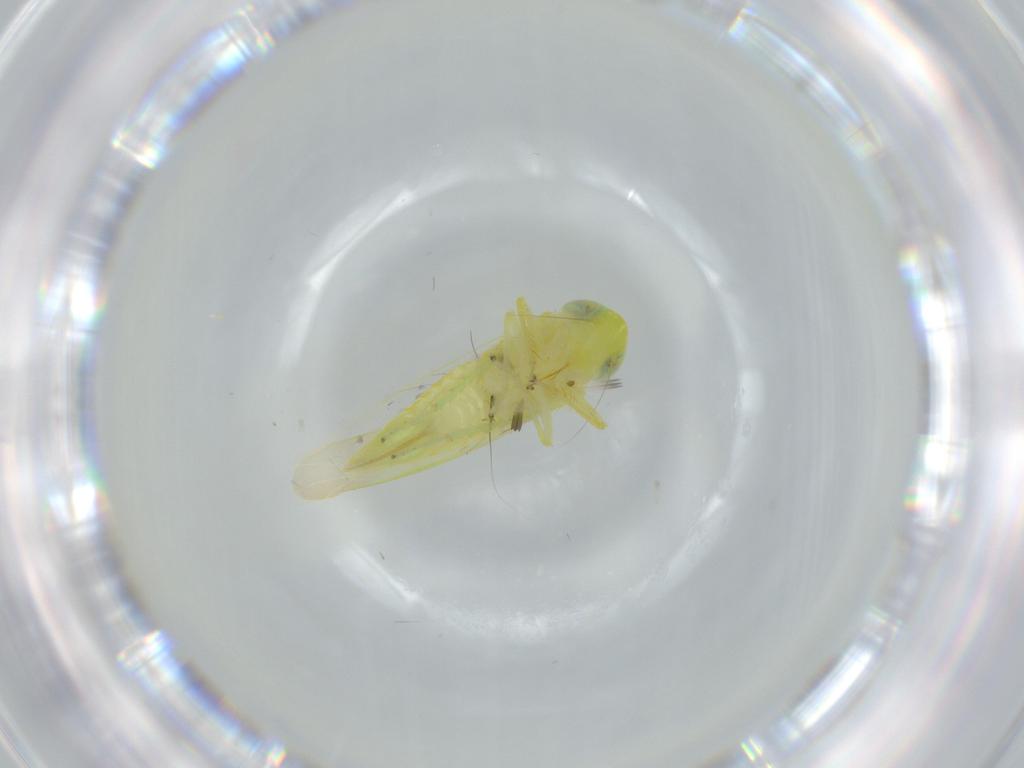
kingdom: Animalia
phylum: Arthropoda
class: Insecta
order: Hemiptera
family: Cicadellidae
